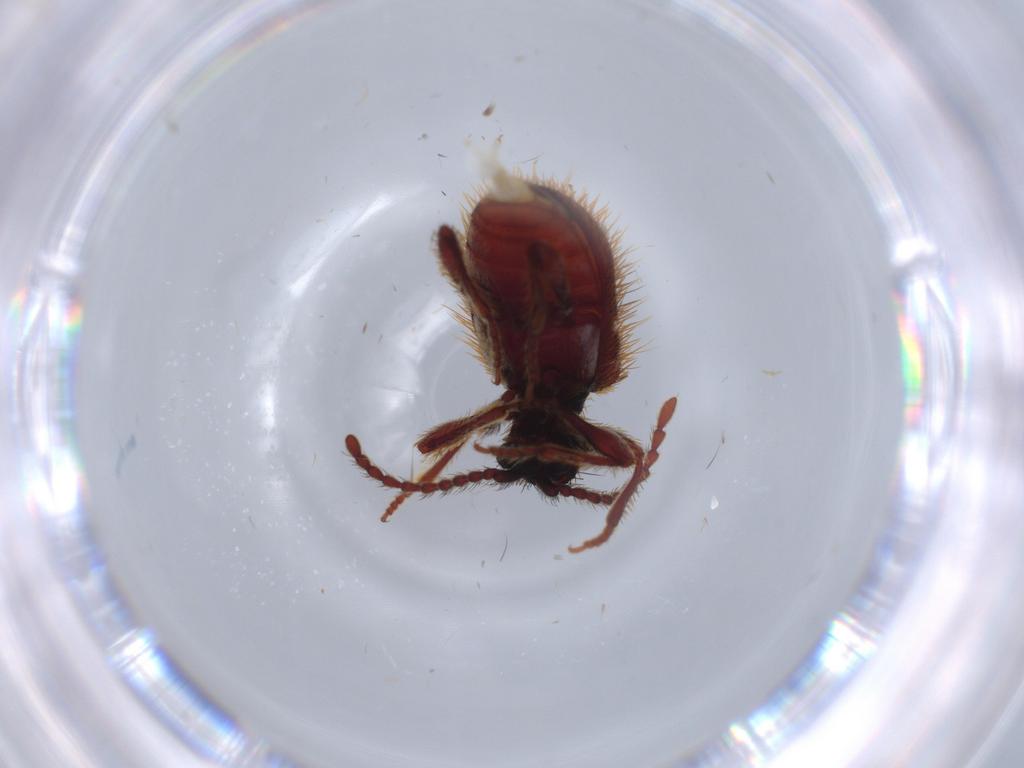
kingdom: Animalia
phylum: Arthropoda
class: Insecta
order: Coleoptera
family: Ptinidae
